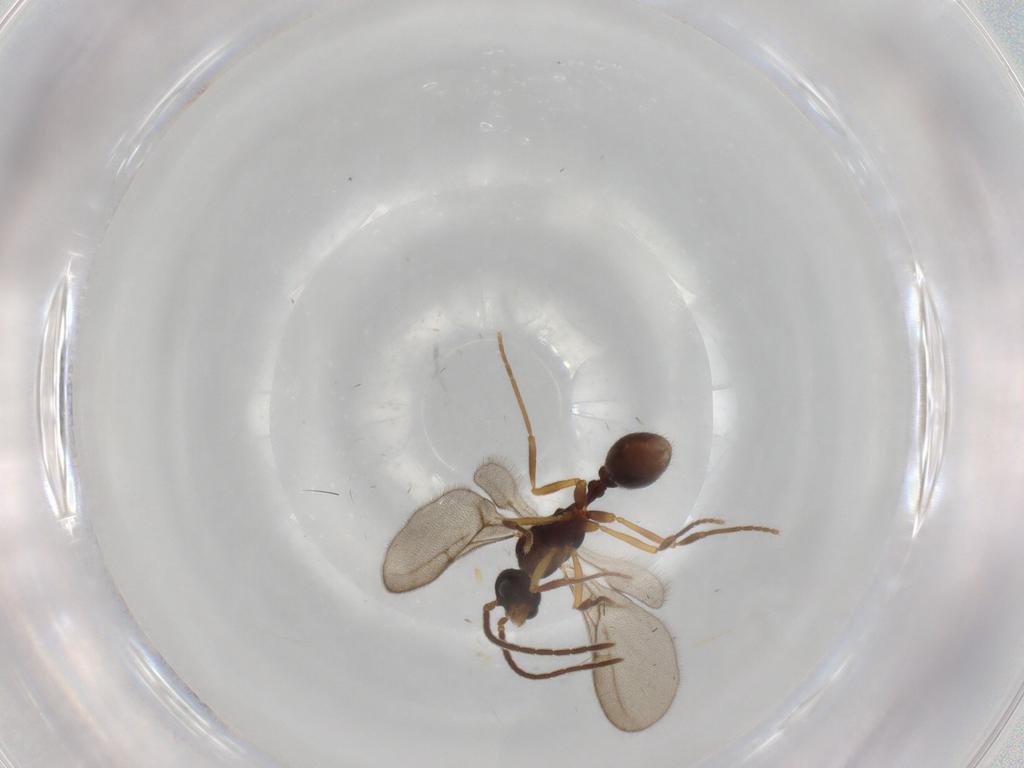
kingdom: Animalia
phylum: Arthropoda
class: Insecta
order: Hymenoptera
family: Formicidae
